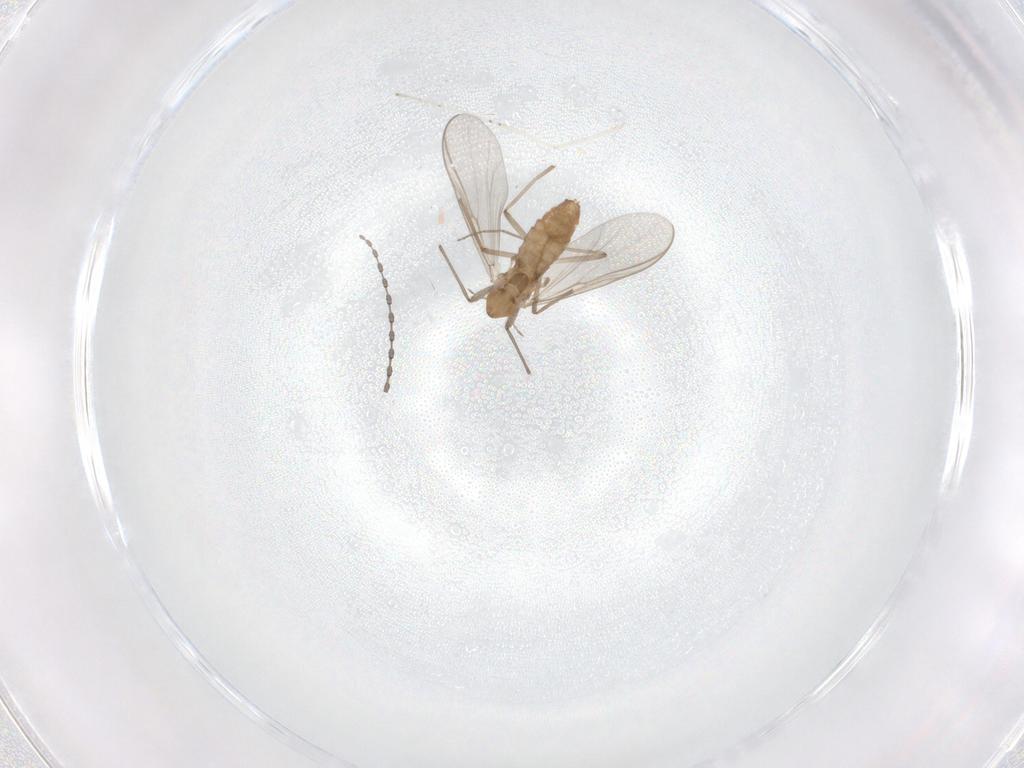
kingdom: Animalia
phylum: Arthropoda
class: Insecta
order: Diptera
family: Chironomidae
